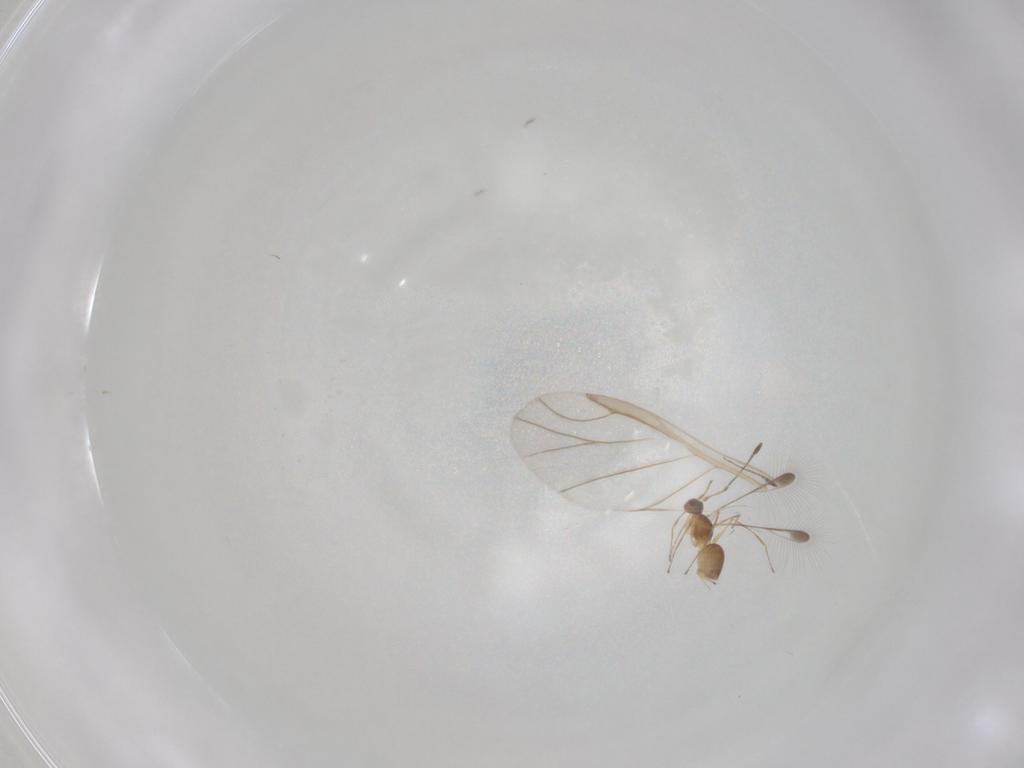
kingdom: Animalia
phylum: Arthropoda
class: Insecta
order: Hymenoptera
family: Mymaridae
